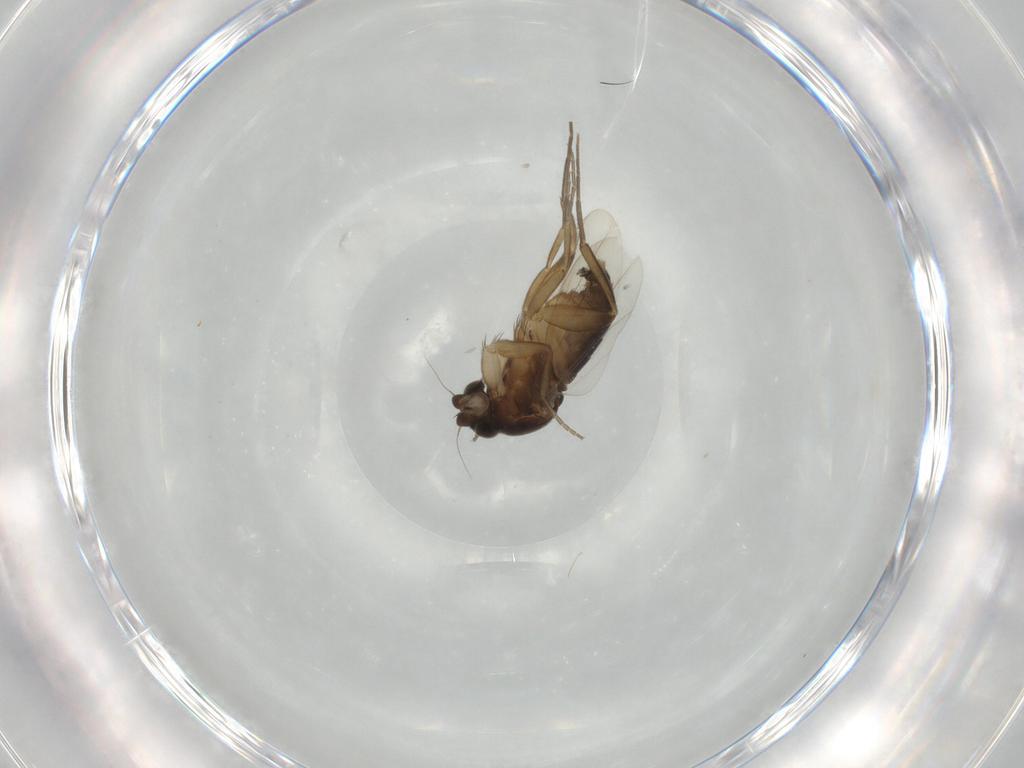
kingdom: Animalia
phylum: Arthropoda
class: Insecta
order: Diptera
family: Phoridae
